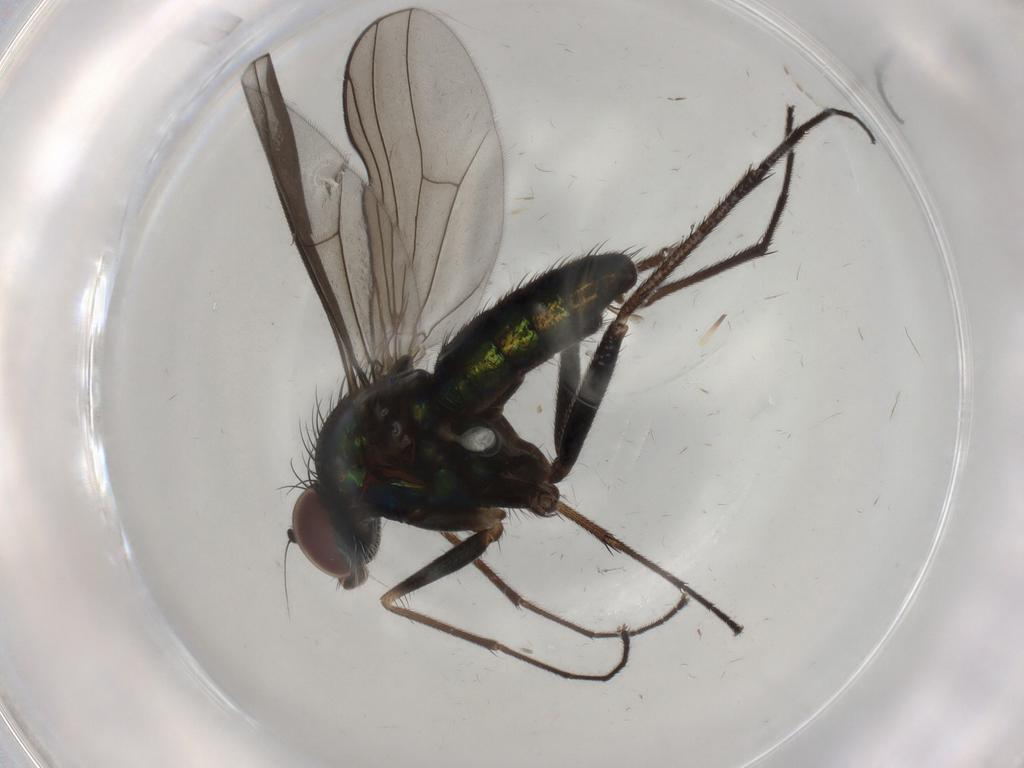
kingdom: Animalia
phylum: Arthropoda
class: Insecta
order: Diptera
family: Dolichopodidae
